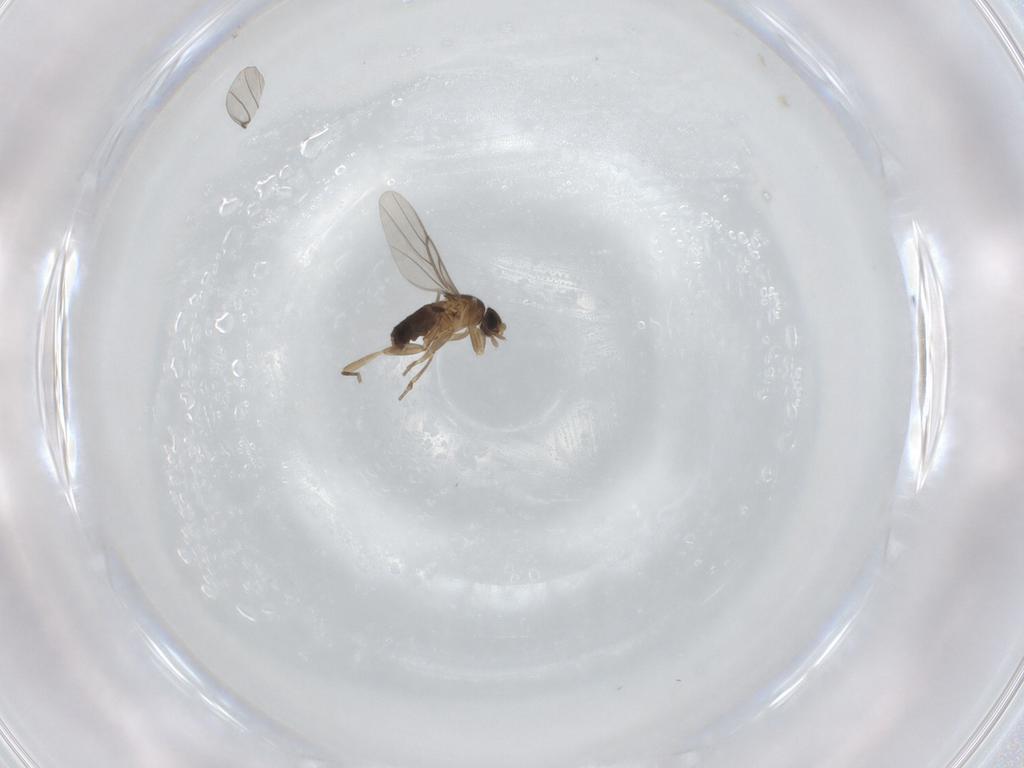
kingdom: Animalia
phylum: Arthropoda
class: Insecta
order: Diptera
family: Phoridae
